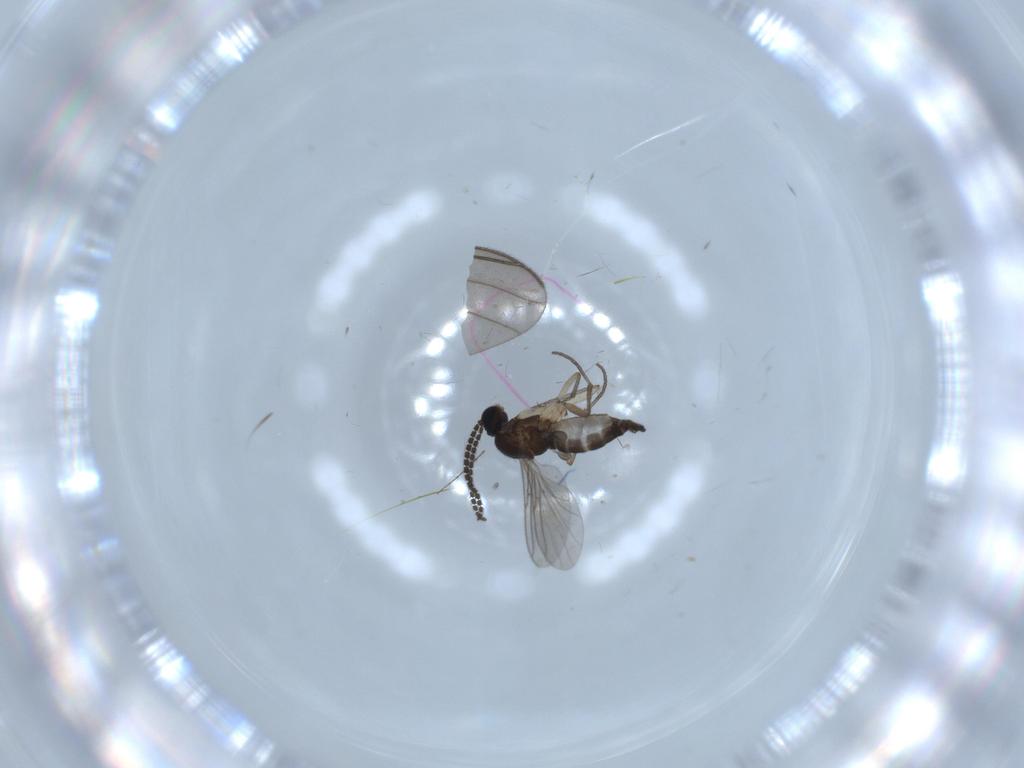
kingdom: Animalia
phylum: Arthropoda
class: Insecta
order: Diptera
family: Sciaridae
